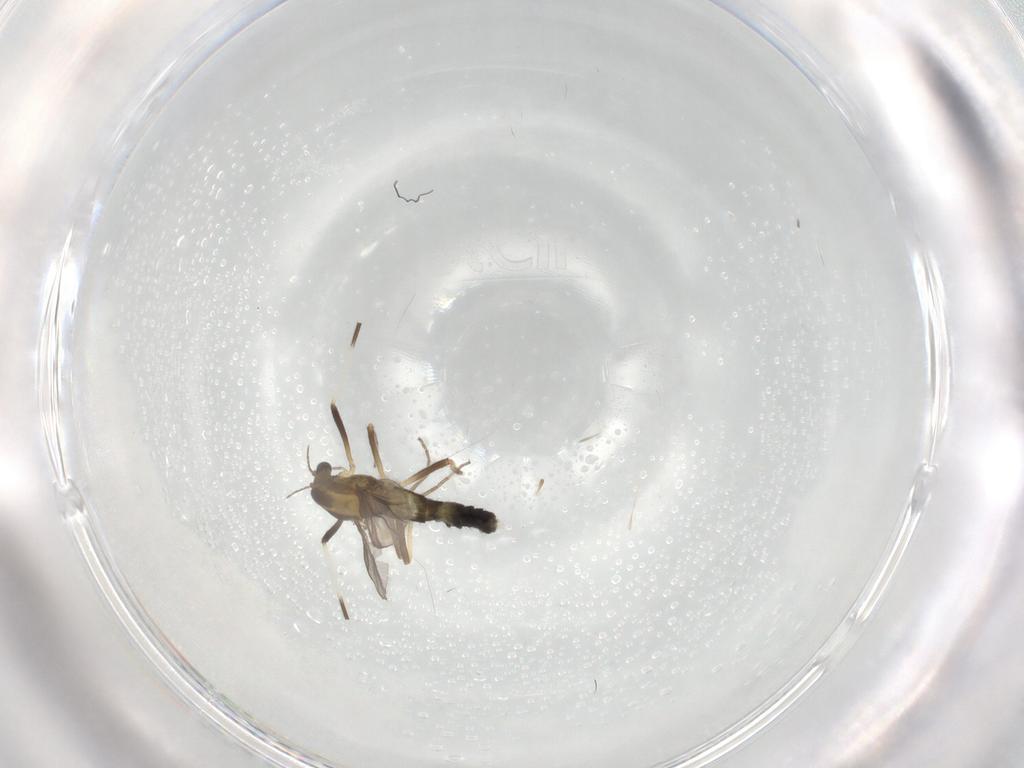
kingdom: Animalia
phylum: Arthropoda
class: Insecta
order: Diptera
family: Chironomidae
